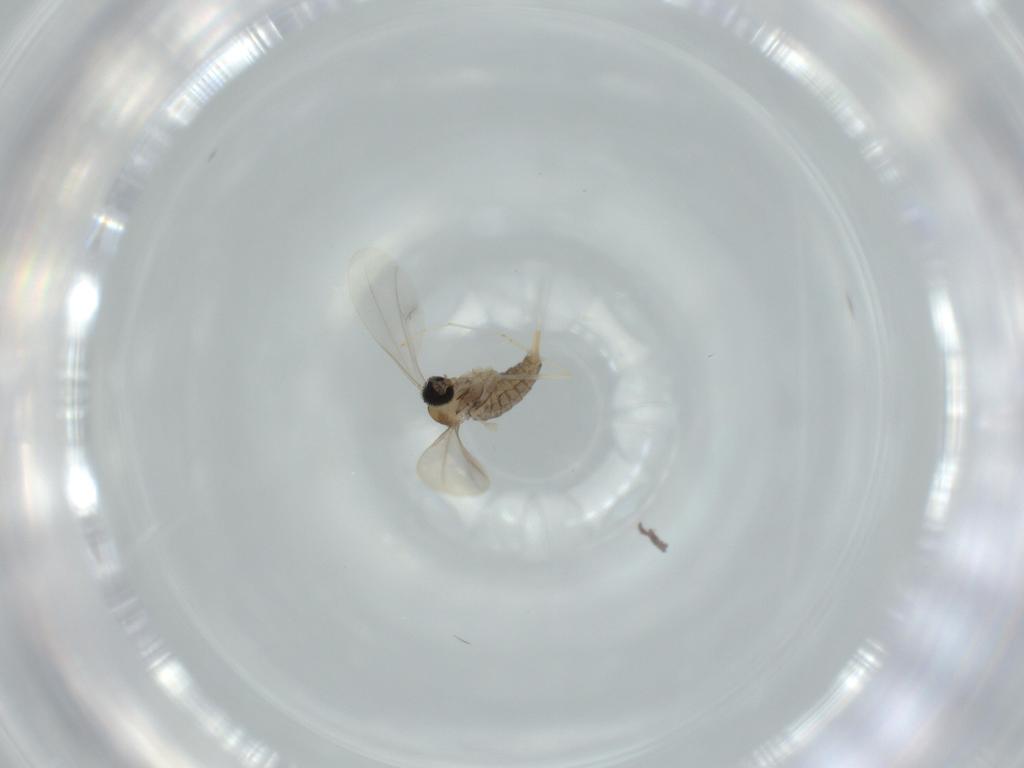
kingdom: Animalia
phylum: Arthropoda
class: Insecta
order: Diptera
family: Cecidomyiidae
